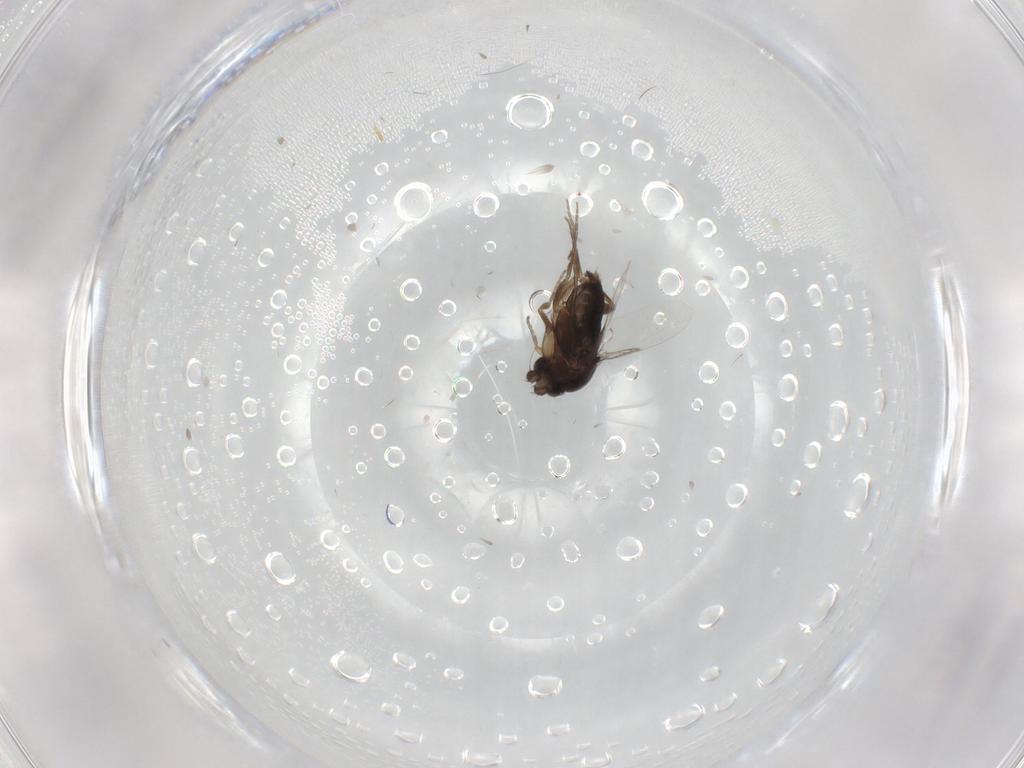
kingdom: Animalia
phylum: Arthropoda
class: Insecta
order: Diptera
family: Phoridae
